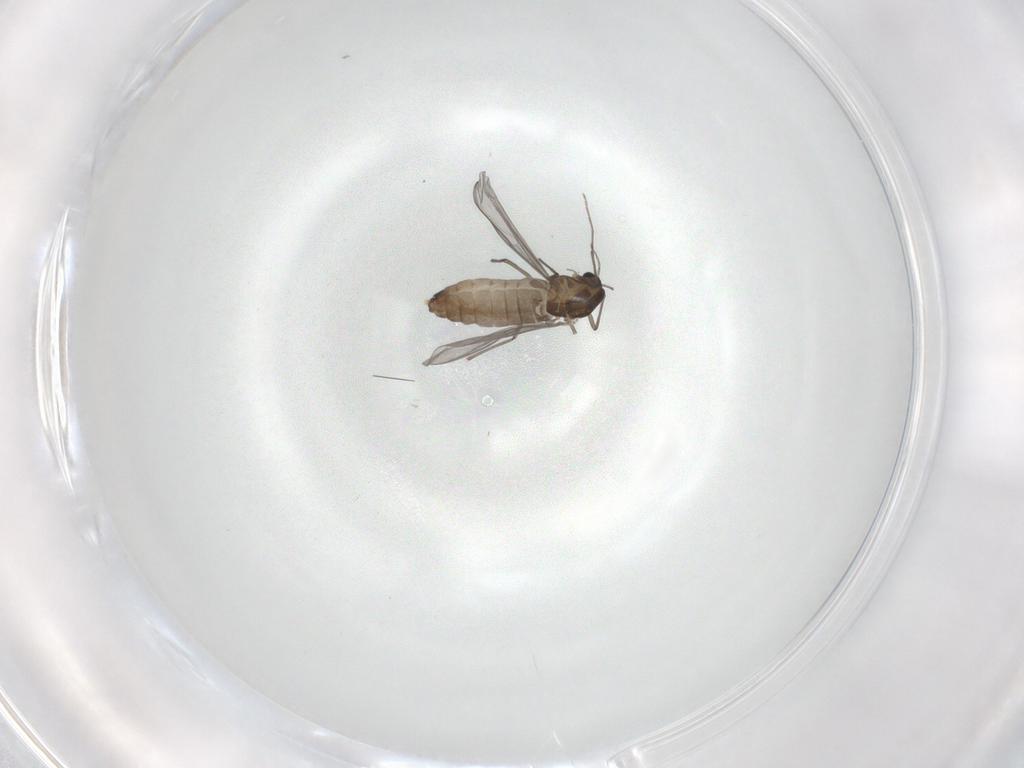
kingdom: Animalia
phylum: Arthropoda
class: Insecta
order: Diptera
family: Chironomidae
